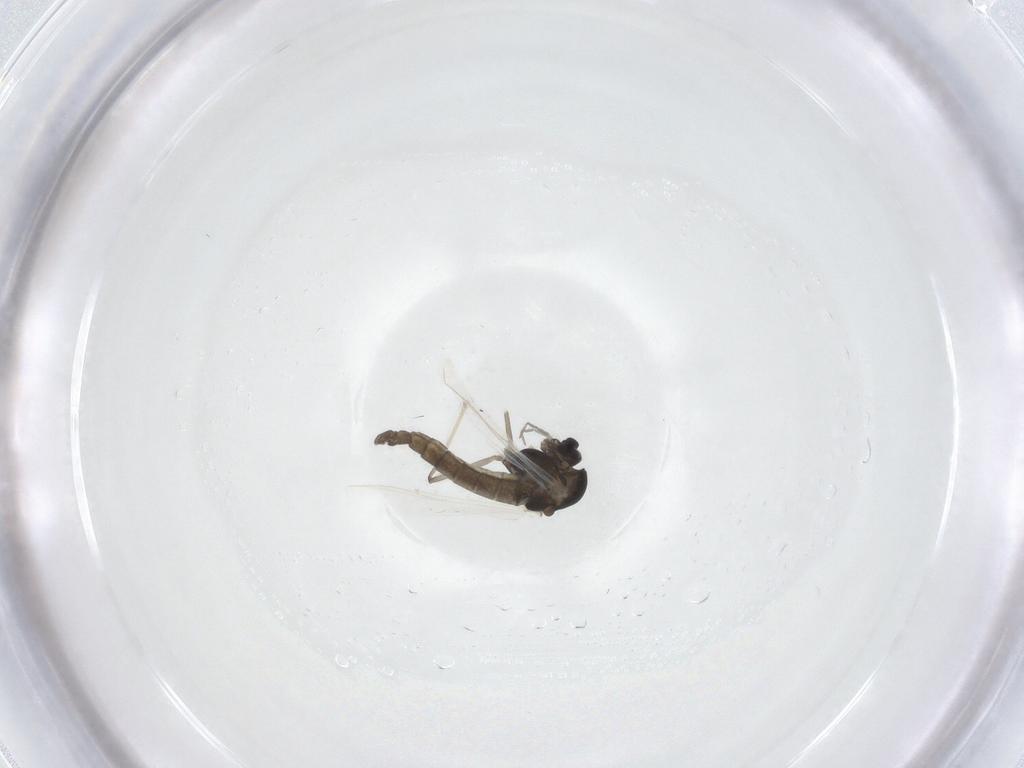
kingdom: Animalia
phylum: Arthropoda
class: Insecta
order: Diptera
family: Chironomidae
